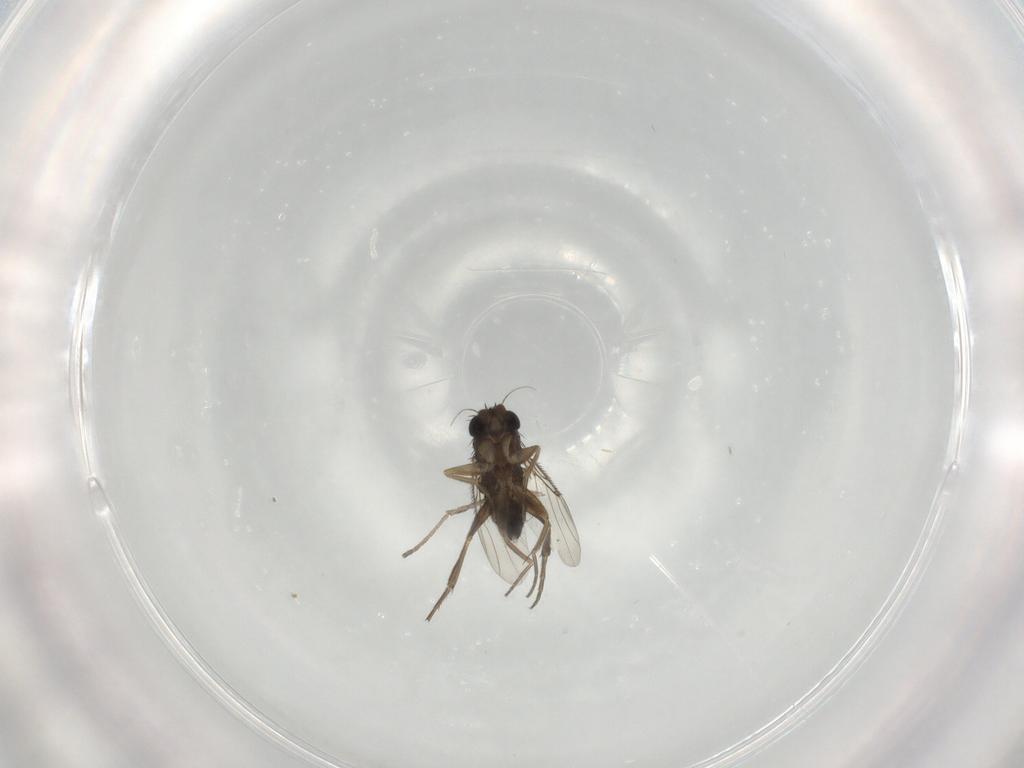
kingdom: Animalia
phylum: Arthropoda
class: Insecta
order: Diptera
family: Phoridae
